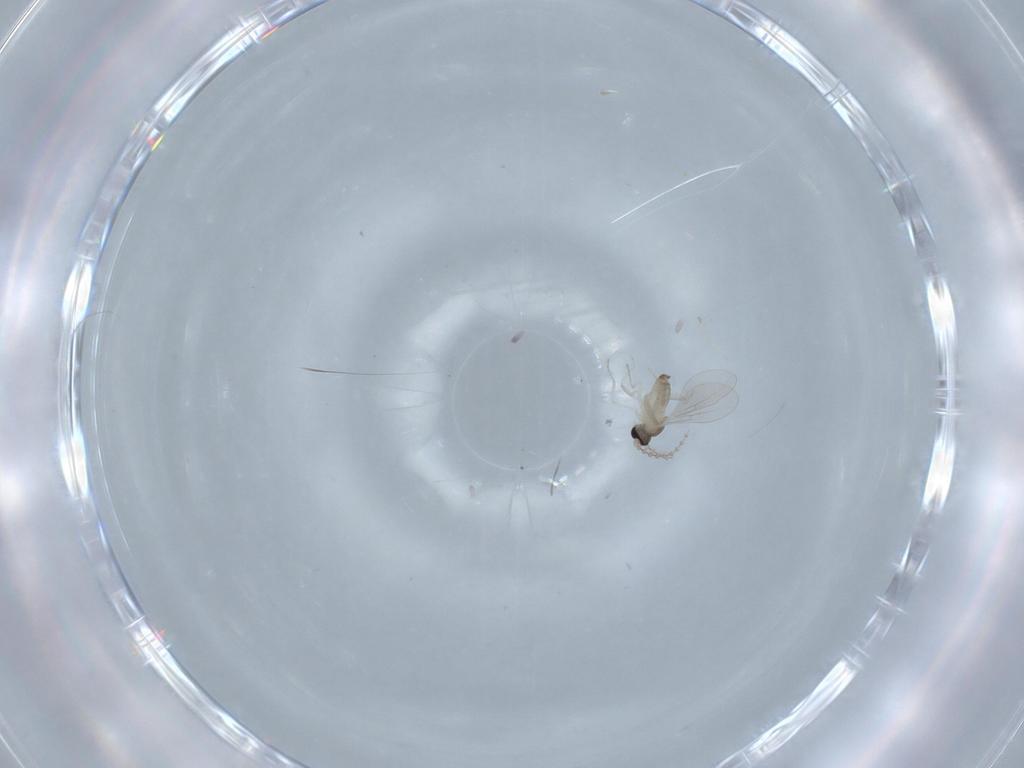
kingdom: Animalia
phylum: Arthropoda
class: Insecta
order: Diptera
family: Cecidomyiidae
